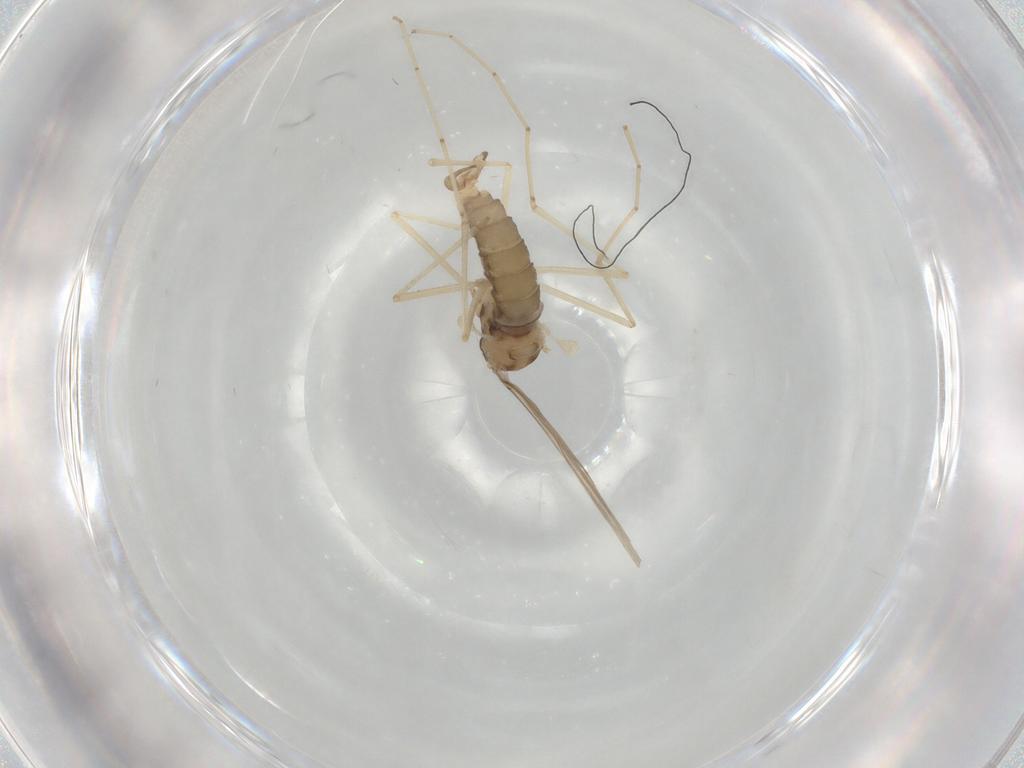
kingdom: Animalia
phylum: Arthropoda
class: Insecta
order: Diptera
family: Cecidomyiidae
